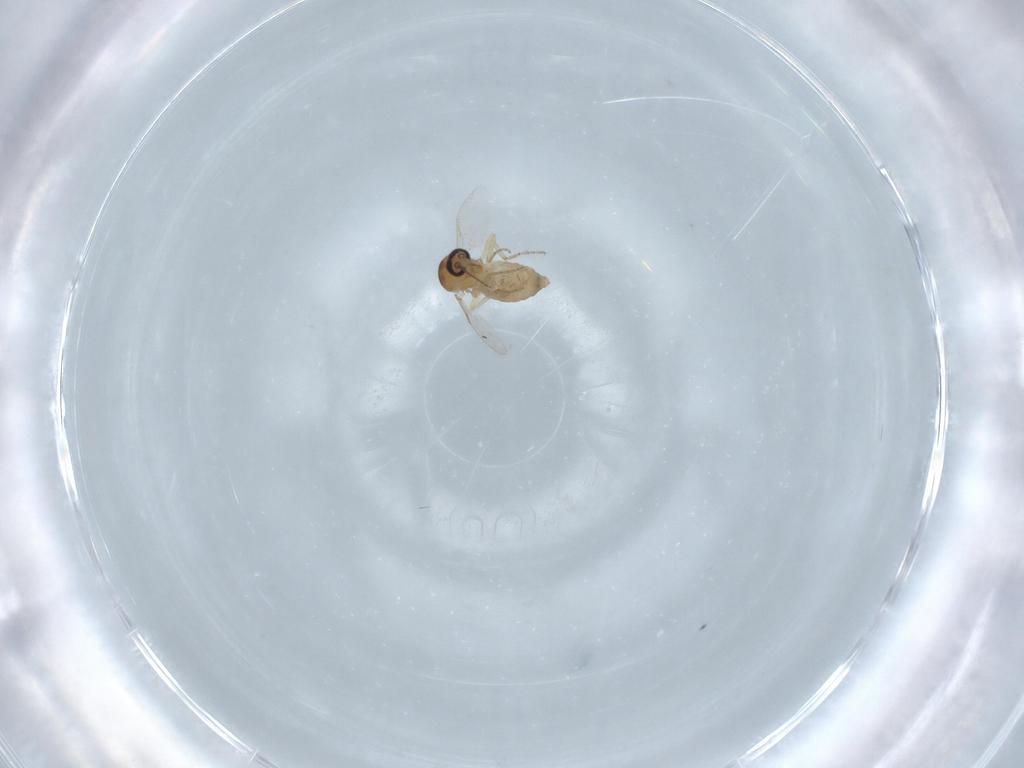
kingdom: Animalia
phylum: Arthropoda
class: Insecta
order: Diptera
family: Ceratopogonidae
